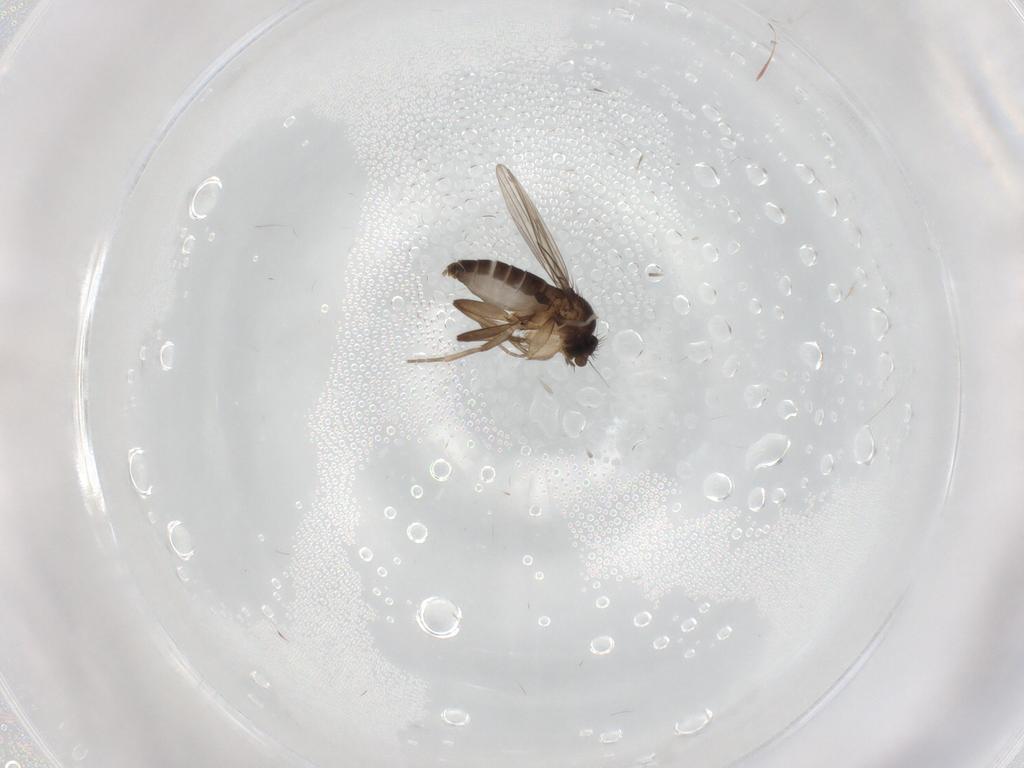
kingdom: Animalia
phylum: Arthropoda
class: Insecta
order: Diptera
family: Phoridae
